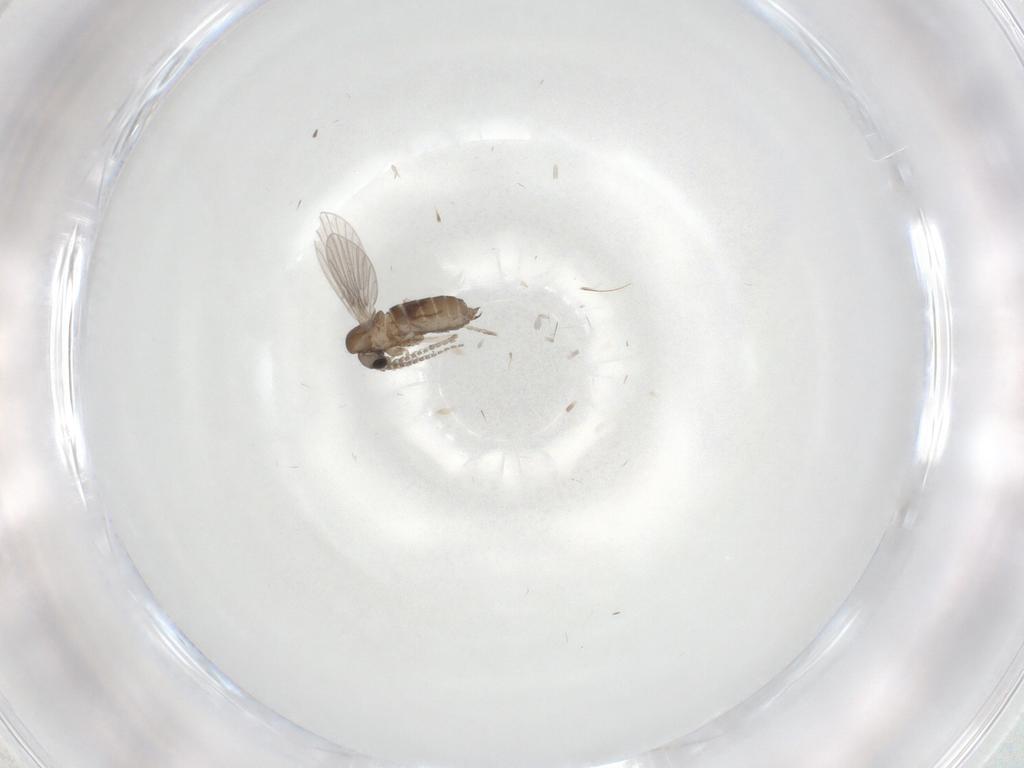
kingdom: Animalia
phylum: Arthropoda
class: Insecta
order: Diptera
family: Sciaridae
